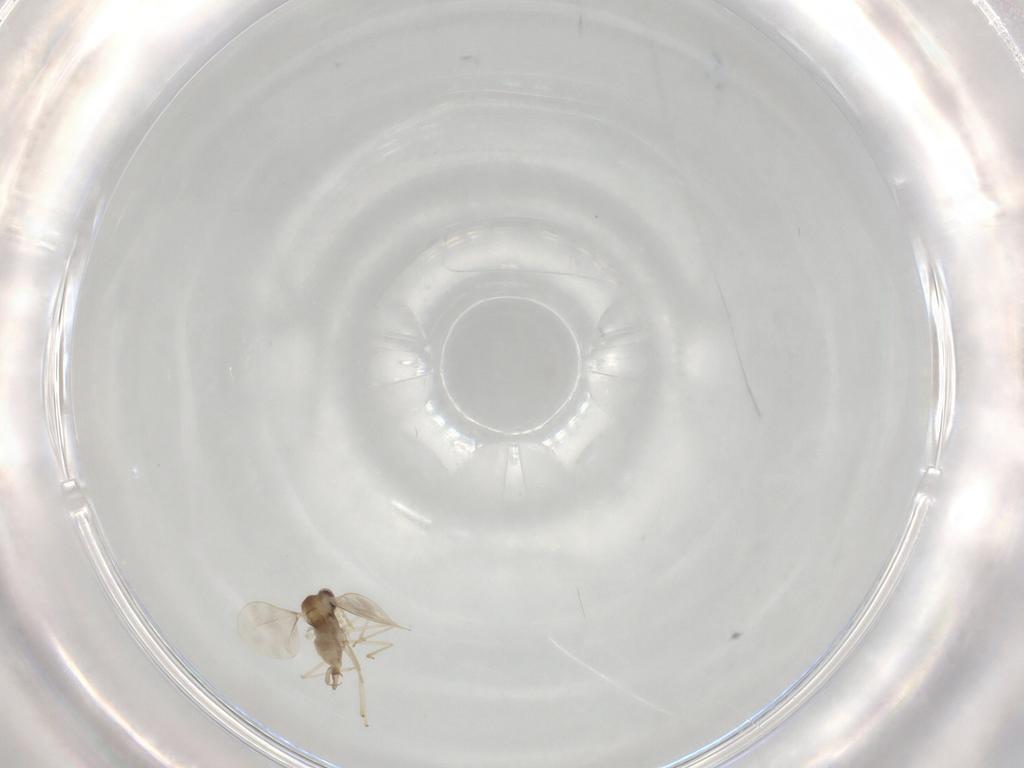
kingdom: Animalia
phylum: Arthropoda
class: Insecta
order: Diptera
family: Cecidomyiidae
